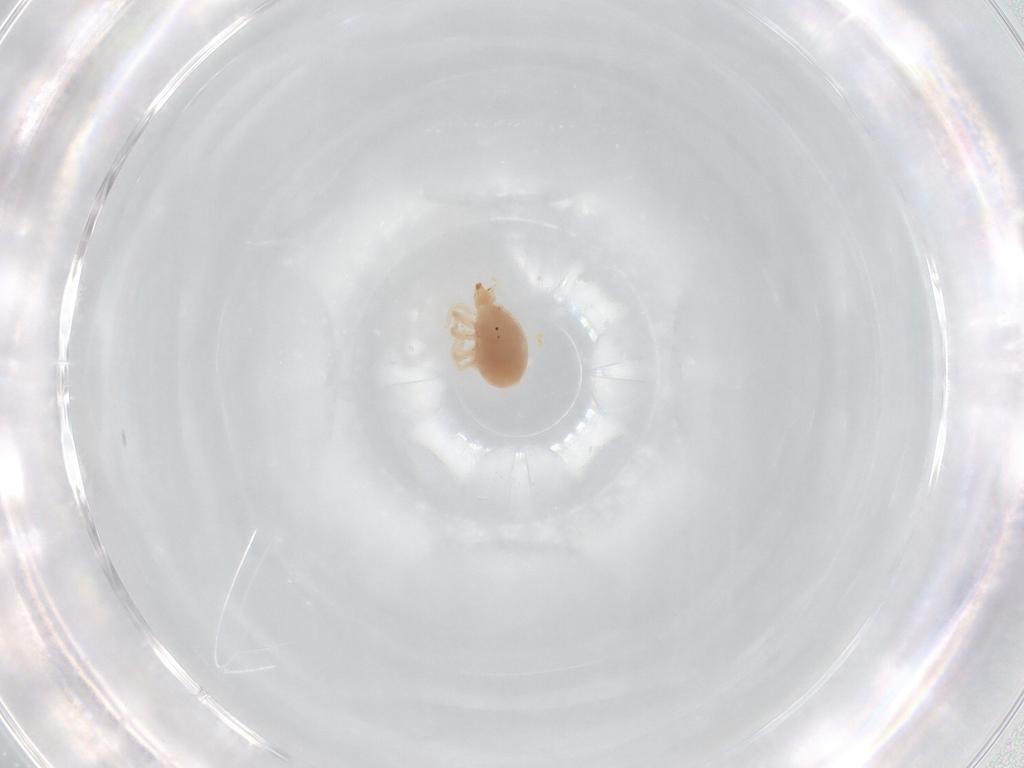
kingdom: Animalia
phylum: Arthropoda
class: Arachnida
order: Trombidiformes
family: Bdellidae
